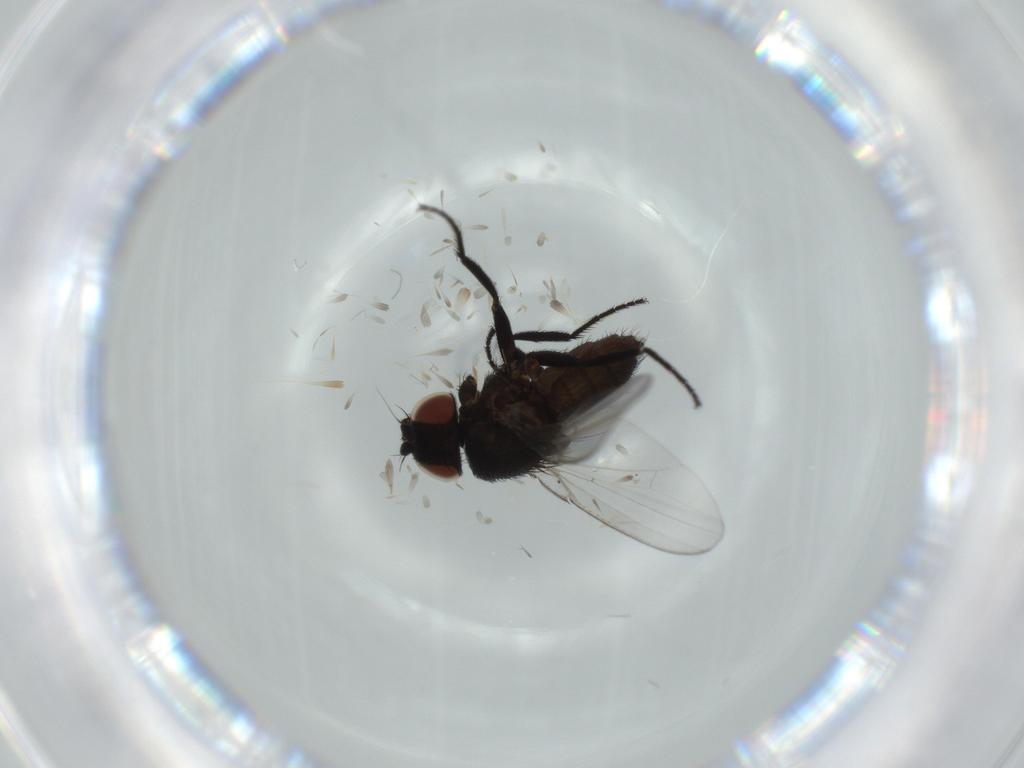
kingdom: Animalia
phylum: Arthropoda
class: Insecta
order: Diptera
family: Milichiidae
